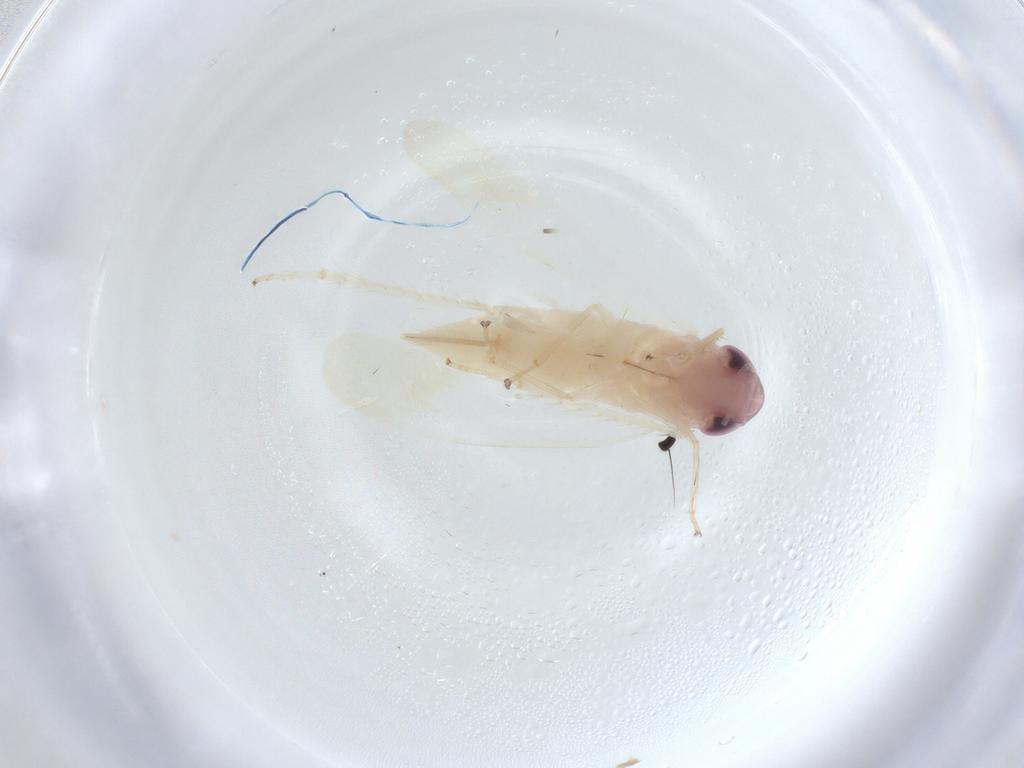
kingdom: Animalia
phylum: Arthropoda
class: Insecta
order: Hemiptera
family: Cicadellidae
